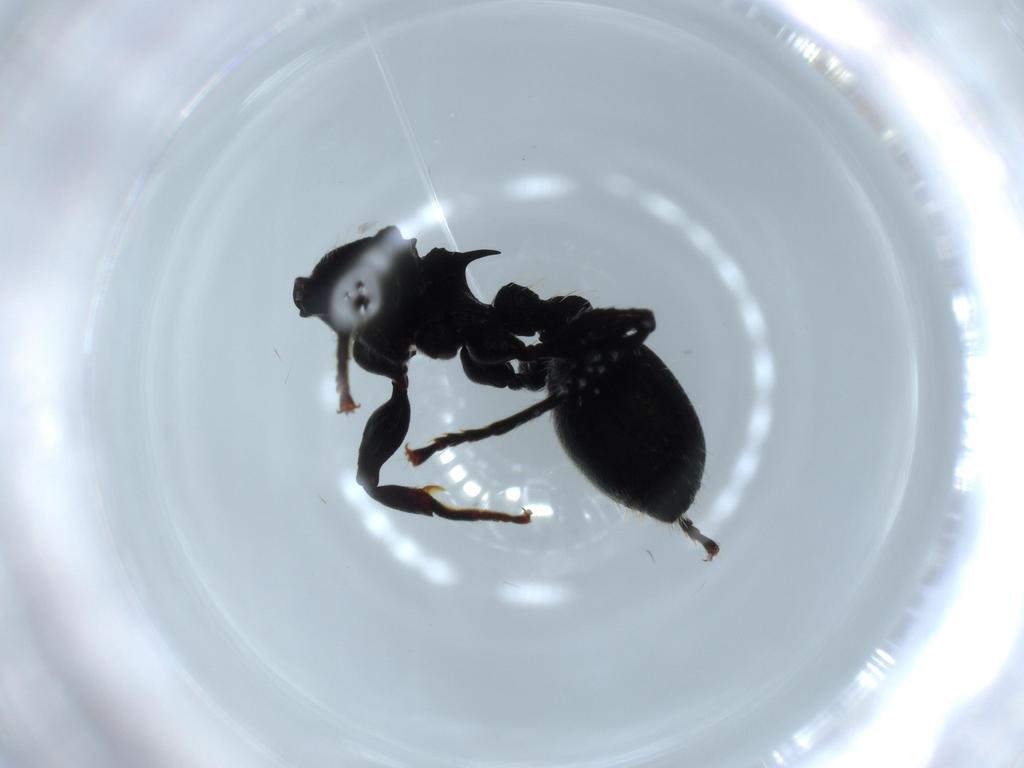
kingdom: Animalia
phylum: Arthropoda
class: Insecta
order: Hymenoptera
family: Formicidae
